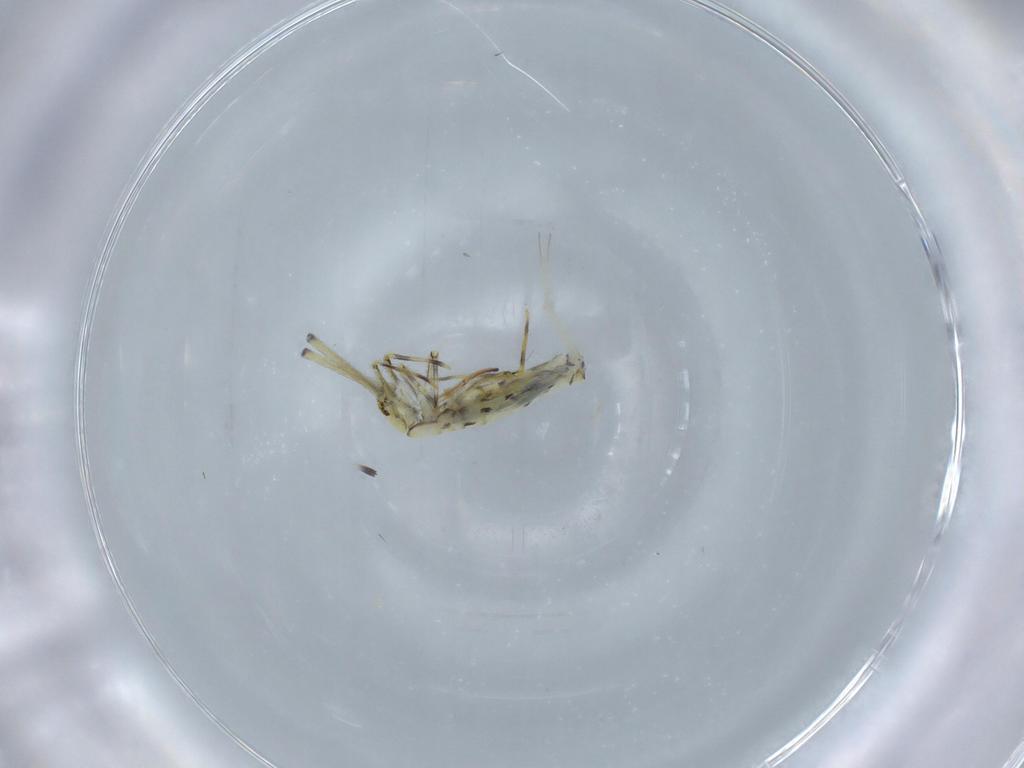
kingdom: Animalia
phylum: Arthropoda
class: Collembola
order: Entomobryomorpha
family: Paronellidae
